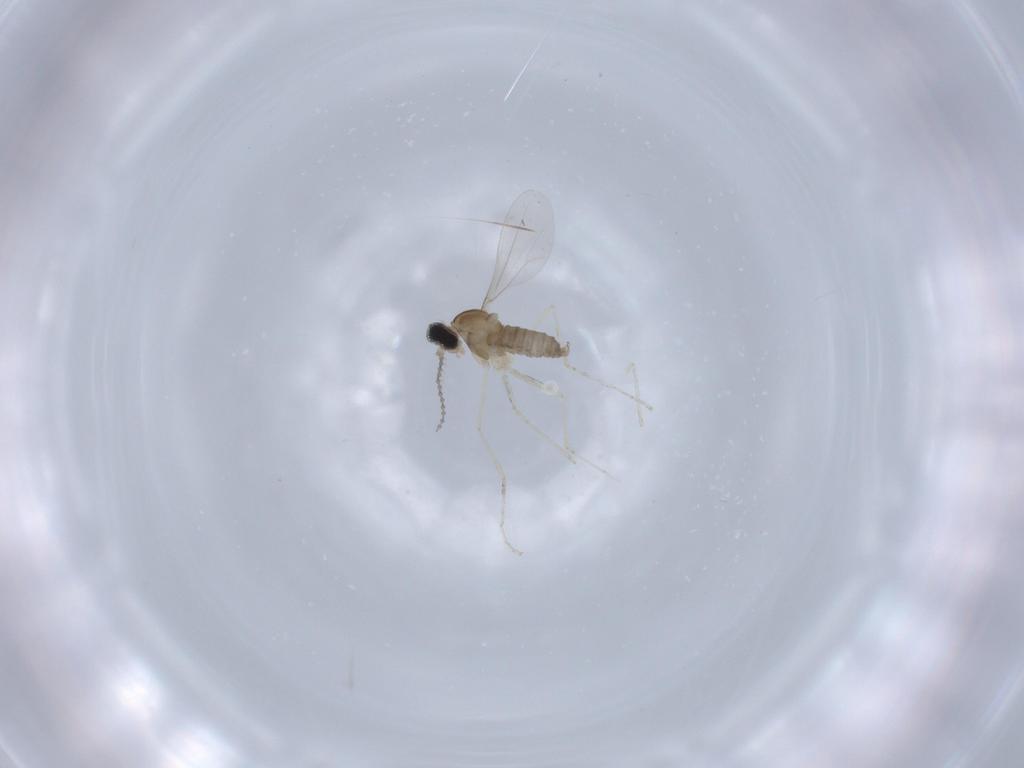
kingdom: Animalia
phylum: Arthropoda
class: Insecta
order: Diptera
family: Cecidomyiidae
